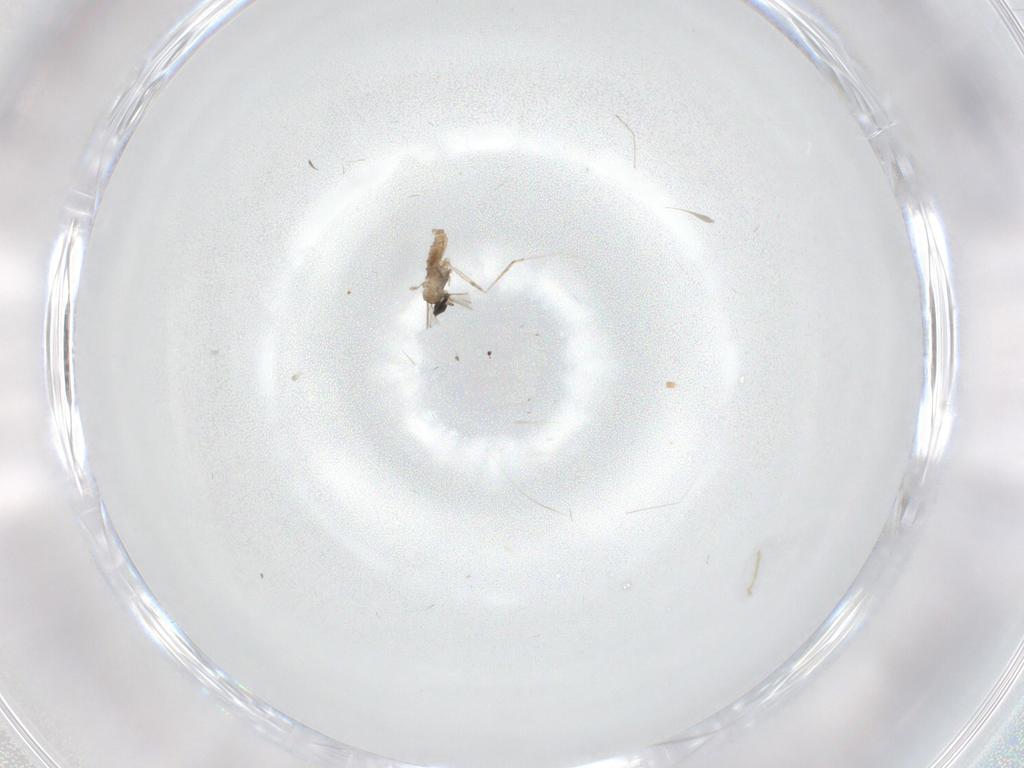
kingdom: Animalia
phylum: Arthropoda
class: Insecta
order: Diptera
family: Cecidomyiidae
